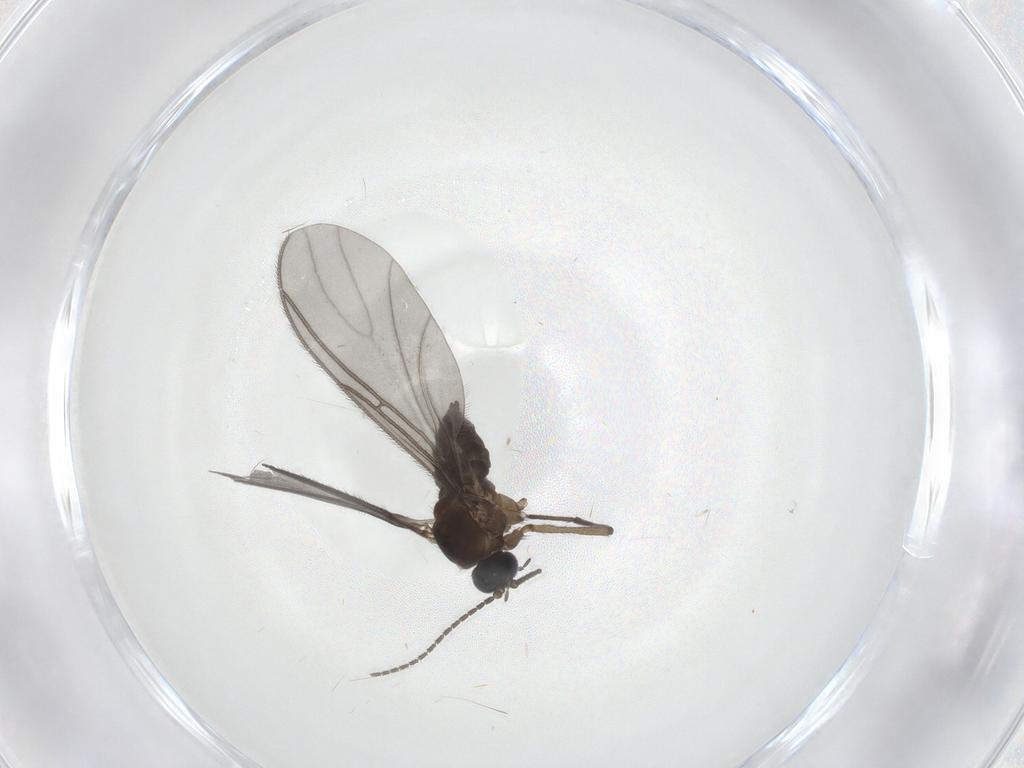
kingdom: Animalia
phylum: Arthropoda
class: Insecta
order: Diptera
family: Sciaridae
